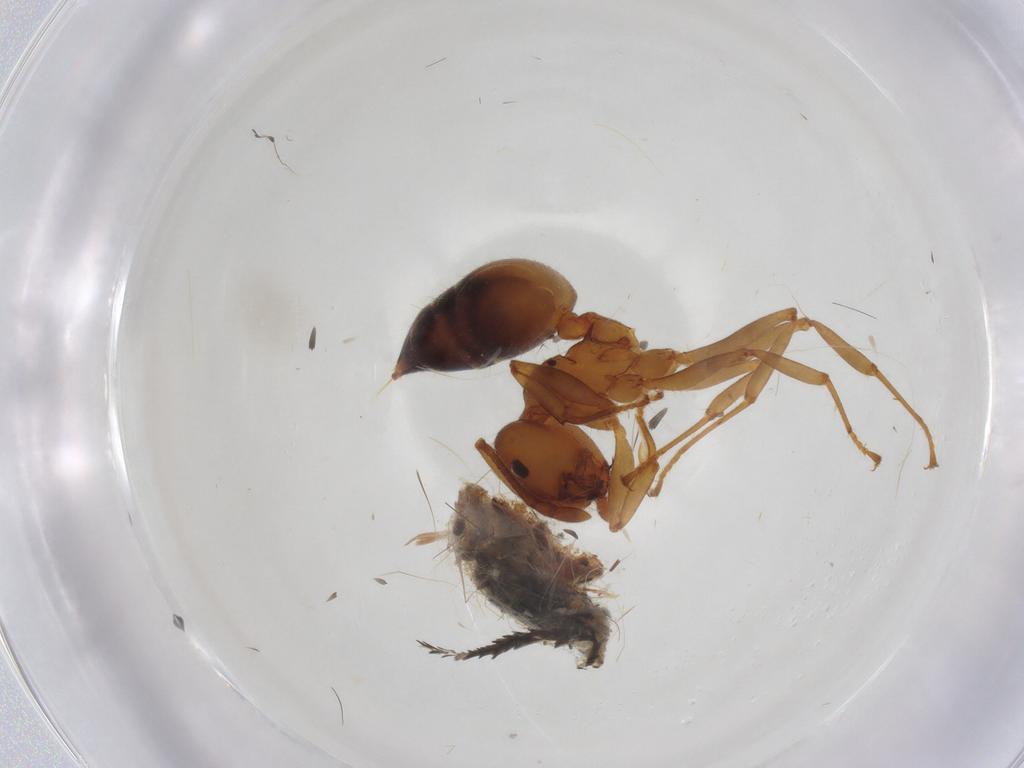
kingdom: Animalia
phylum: Arthropoda
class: Insecta
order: Hymenoptera
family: Formicidae
